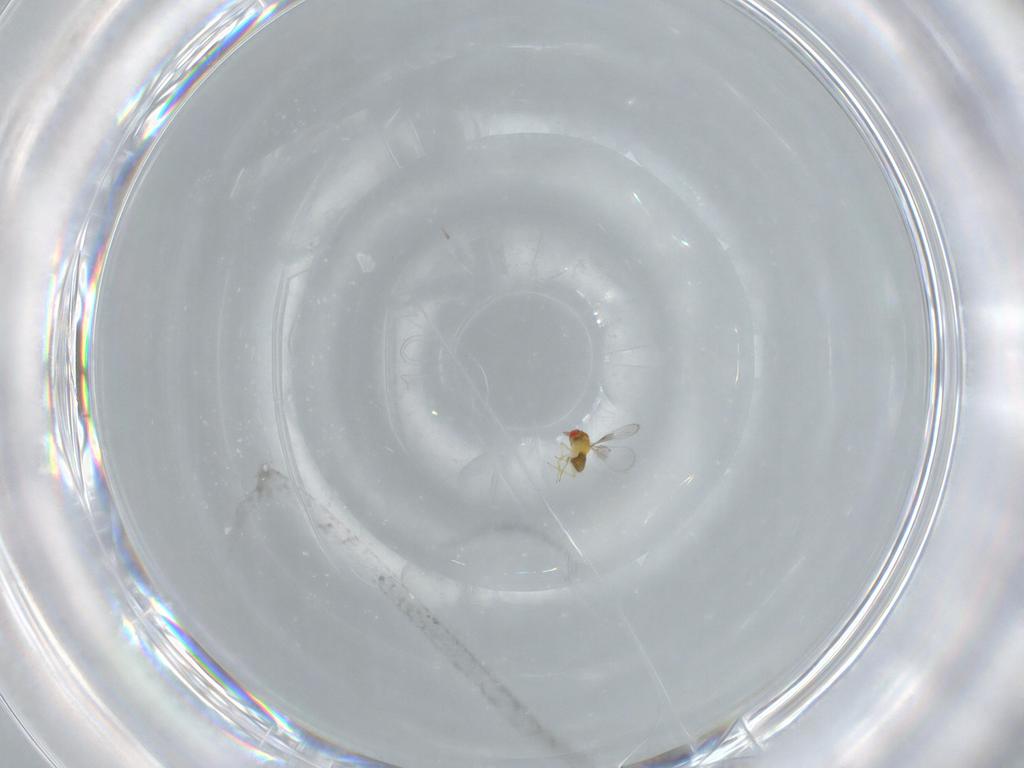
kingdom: Animalia
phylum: Arthropoda
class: Insecta
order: Hymenoptera
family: Trichogrammatidae
